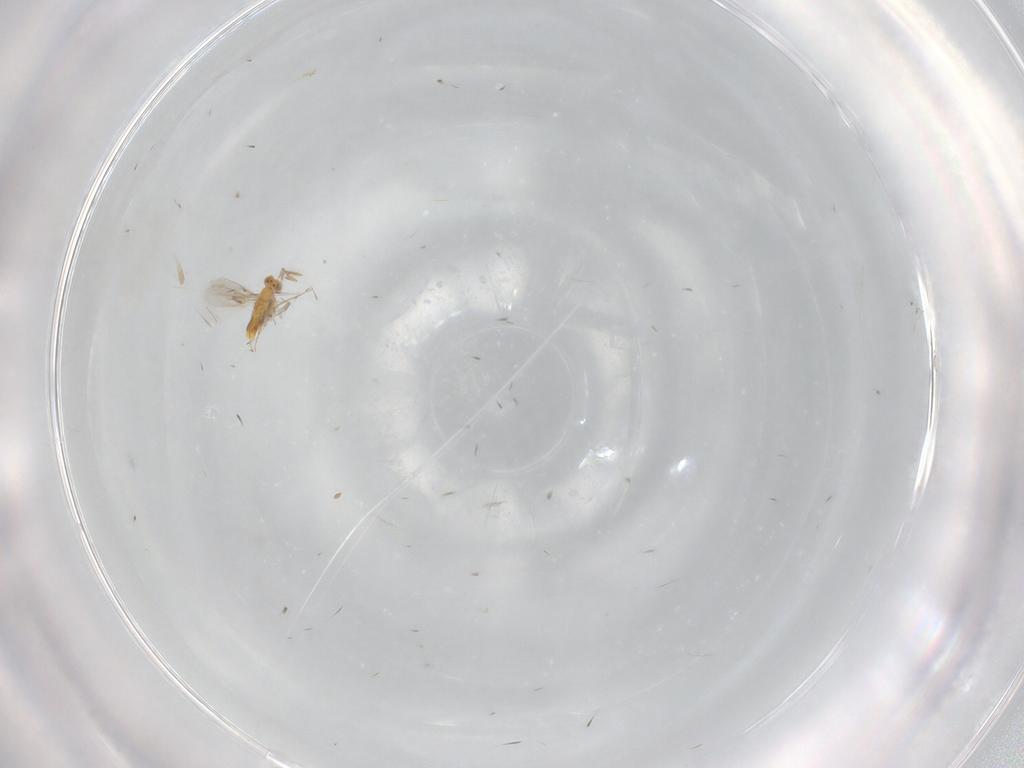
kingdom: Animalia
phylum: Arthropoda
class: Insecta
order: Hymenoptera
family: Aphelinidae
